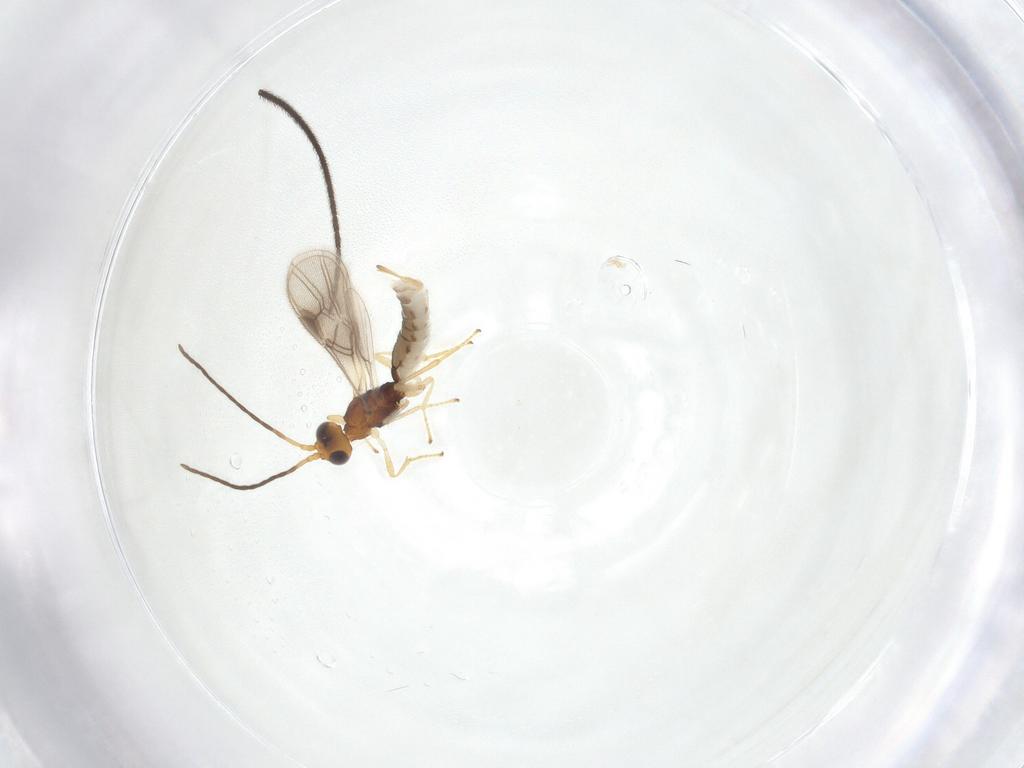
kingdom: Animalia
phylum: Arthropoda
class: Insecta
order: Hymenoptera
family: Braconidae
